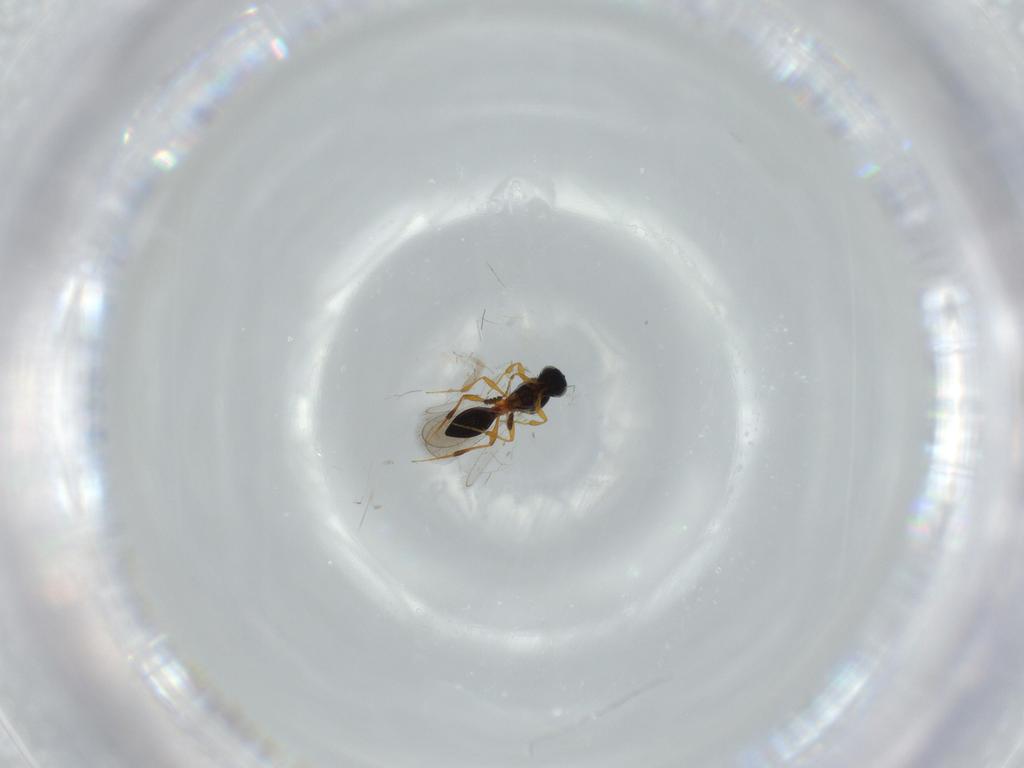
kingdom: Animalia
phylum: Arthropoda
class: Insecta
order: Hymenoptera
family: Platygastridae
